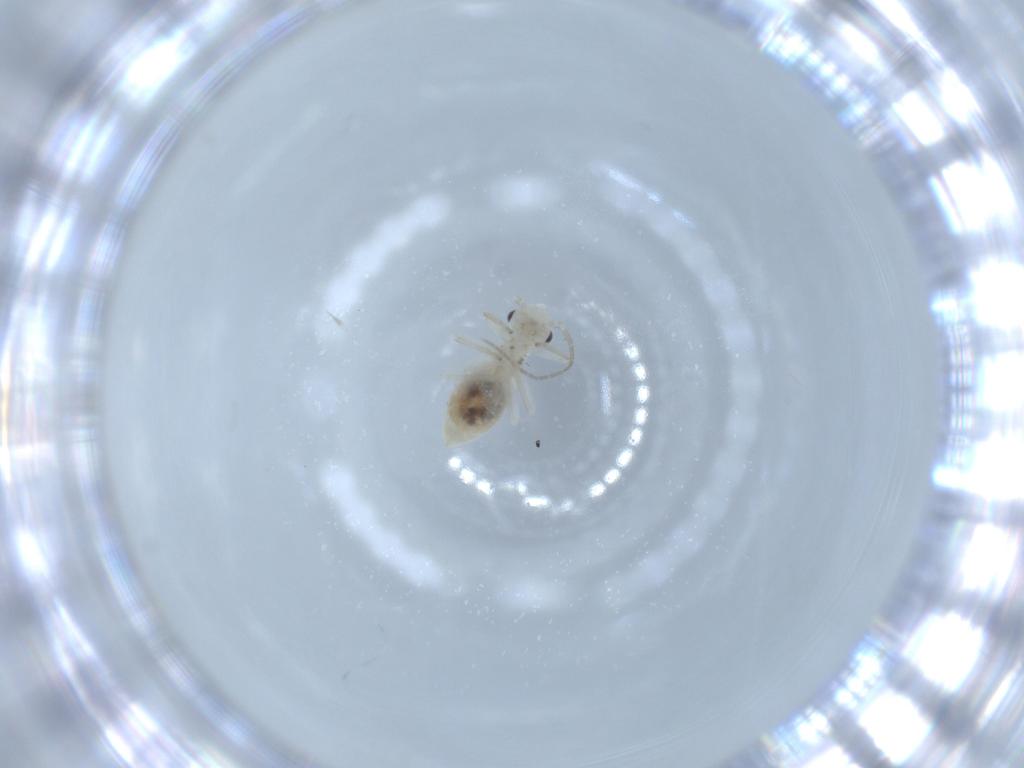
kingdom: Animalia
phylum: Arthropoda
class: Insecta
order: Psocodea
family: Caeciliusidae
